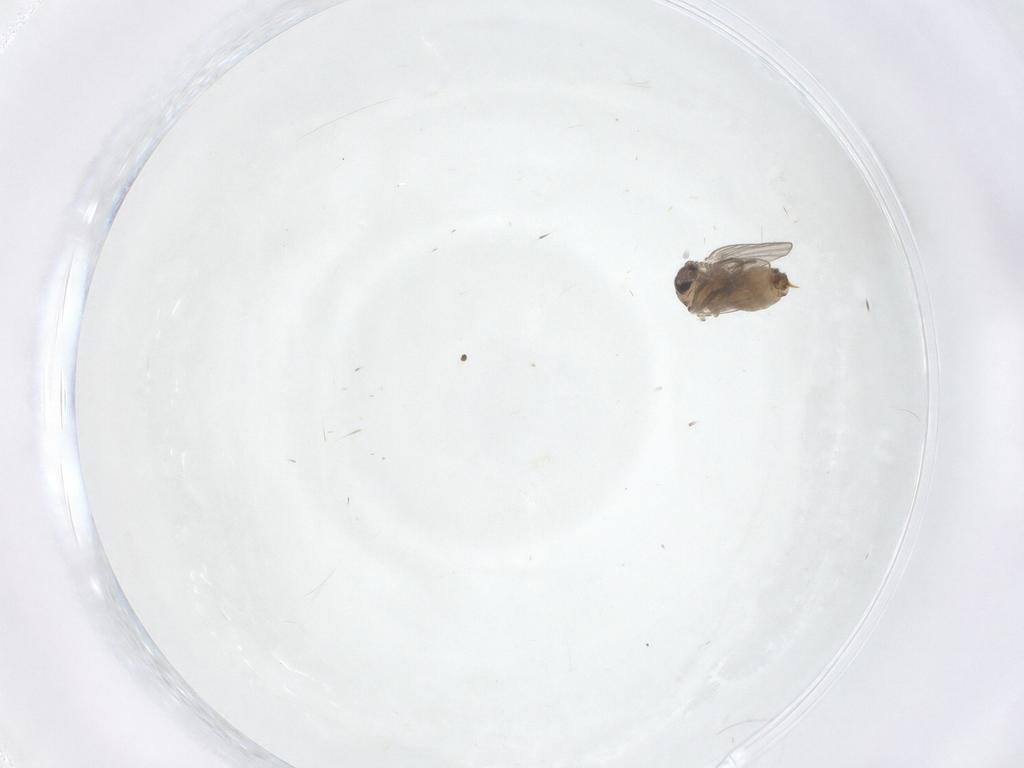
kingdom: Animalia
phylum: Arthropoda
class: Insecta
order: Diptera
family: Psychodidae
